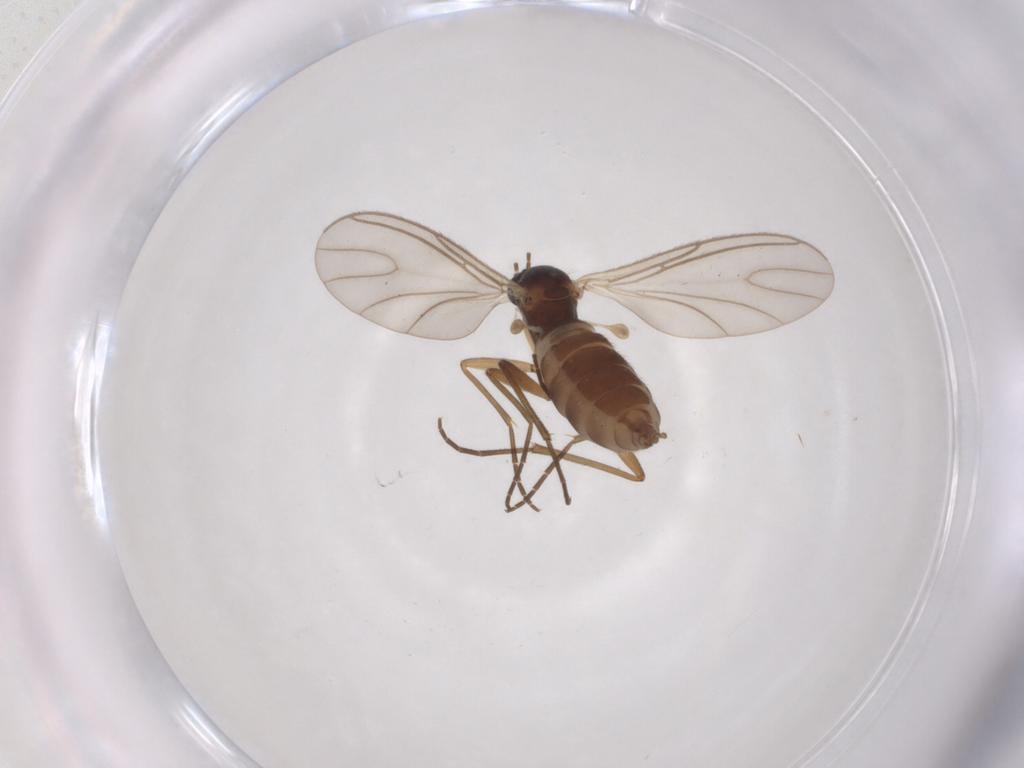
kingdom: Animalia
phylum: Arthropoda
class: Insecta
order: Diptera
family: Sciaridae
